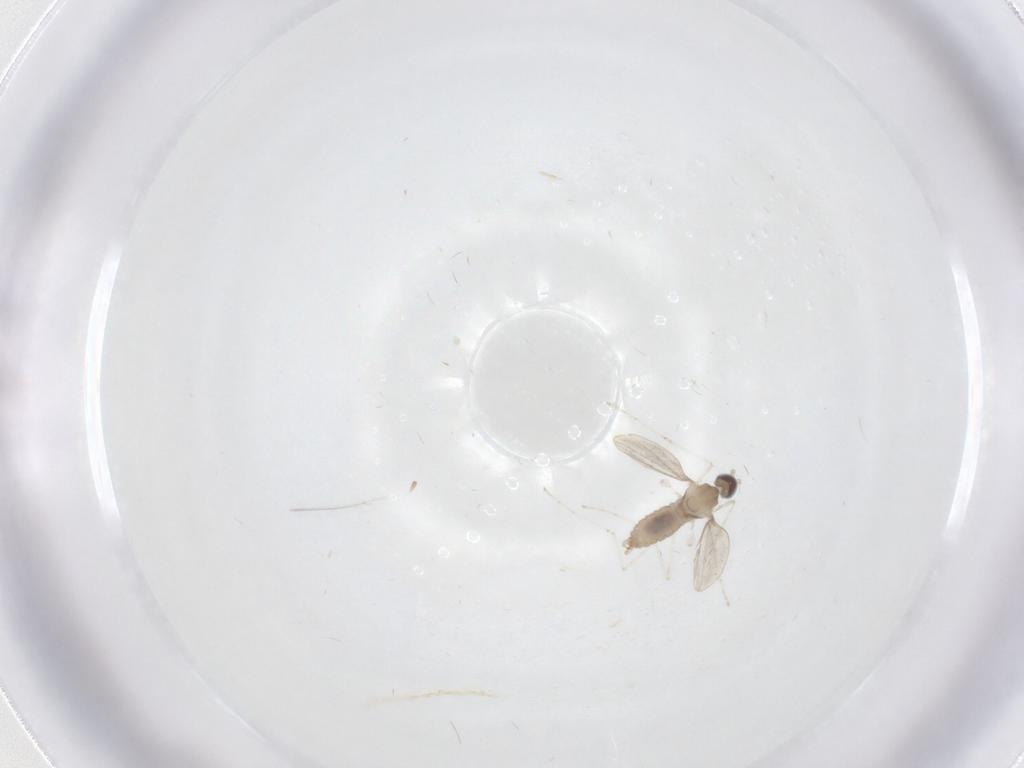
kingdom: Animalia
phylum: Arthropoda
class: Insecta
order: Diptera
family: Cecidomyiidae
